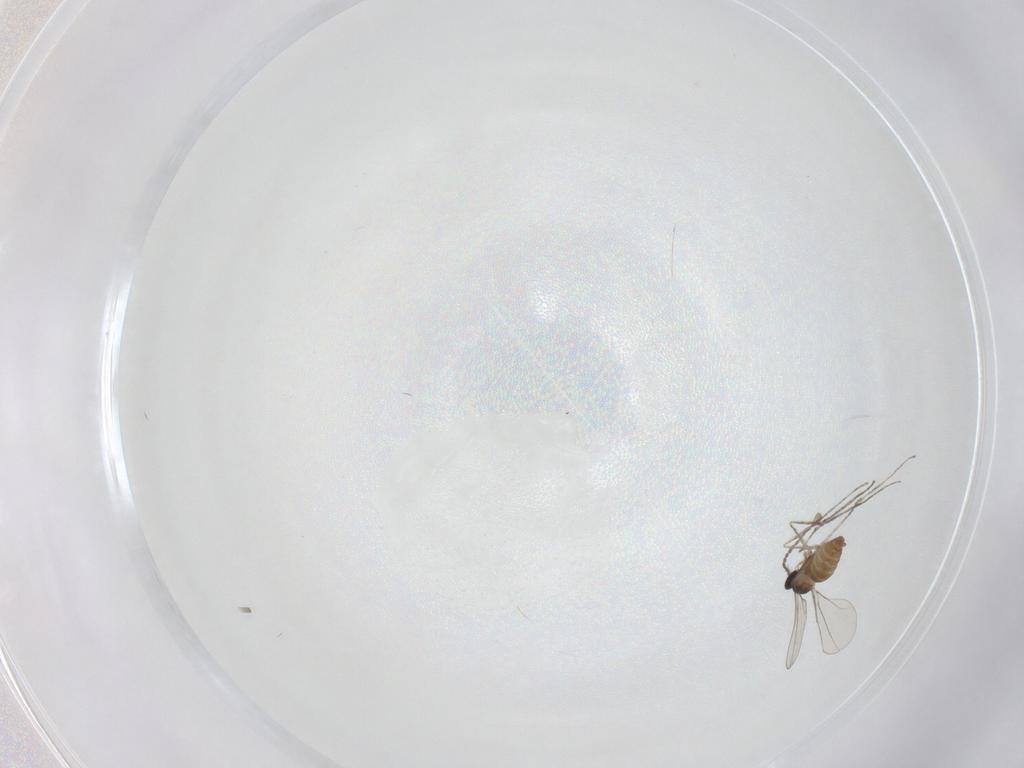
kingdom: Animalia
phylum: Arthropoda
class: Insecta
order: Diptera
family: Cecidomyiidae
